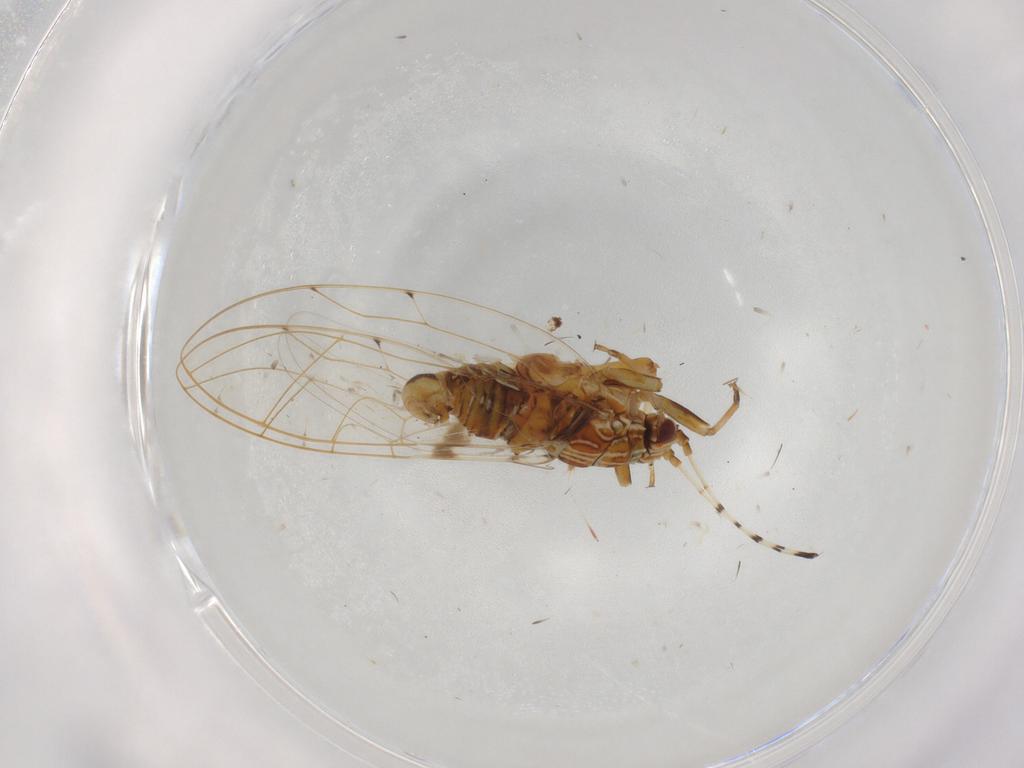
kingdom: Animalia
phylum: Arthropoda
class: Insecta
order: Hemiptera
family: Cicadellidae
